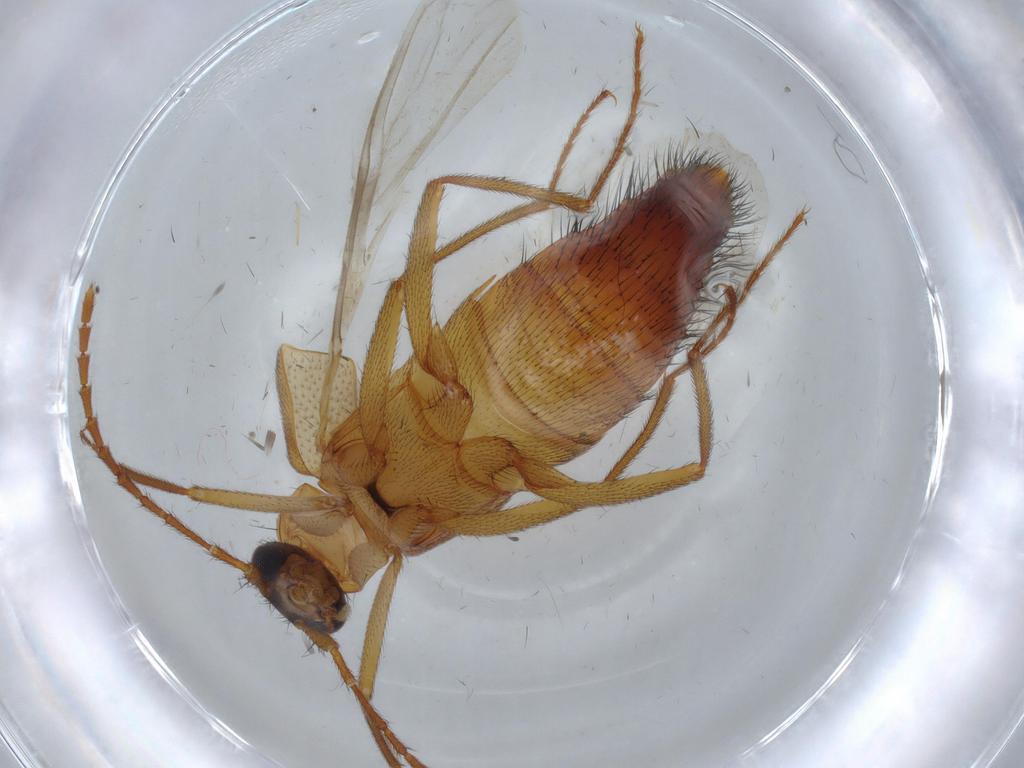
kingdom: Animalia
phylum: Arthropoda
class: Insecta
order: Coleoptera
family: Staphylinidae
